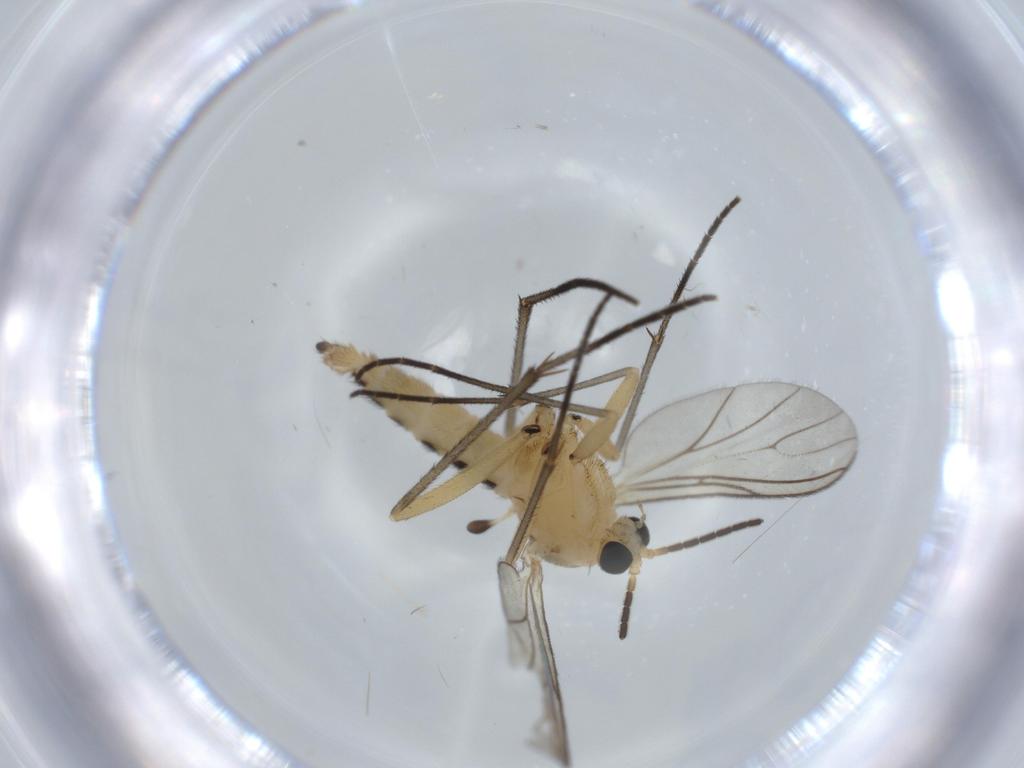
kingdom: Animalia
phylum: Arthropoda
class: Insecta
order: Diptera
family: Sciaridae
